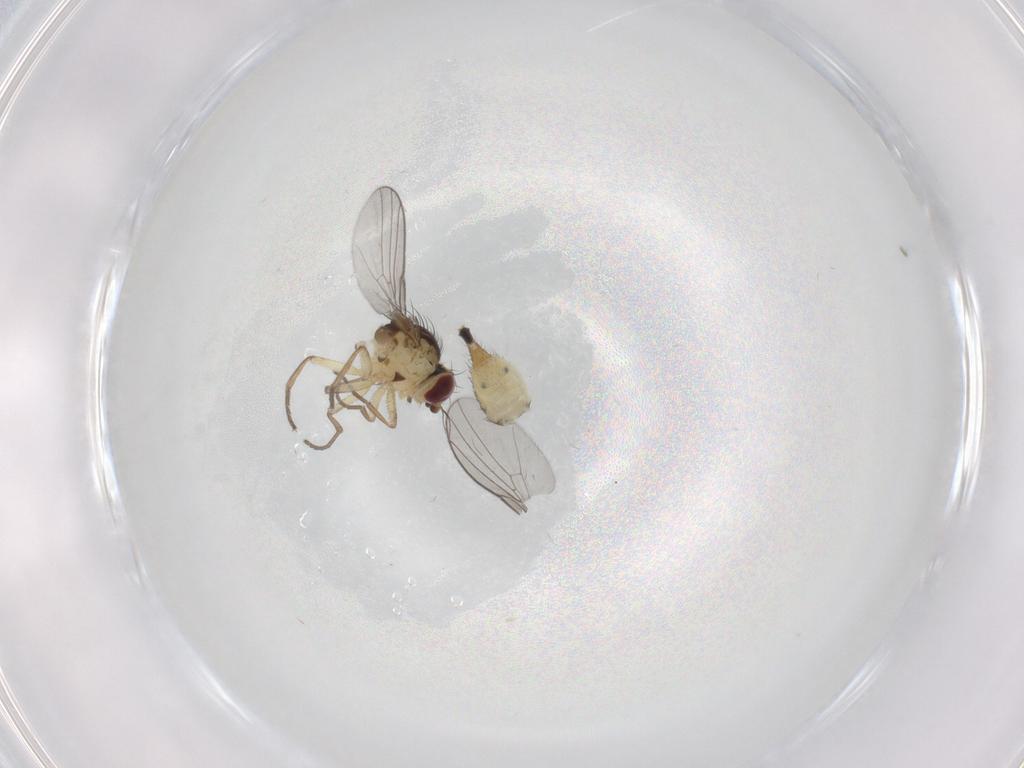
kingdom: Animalia
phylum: Arthropoda
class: Insecta
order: Diptera
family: Agromyzidae
